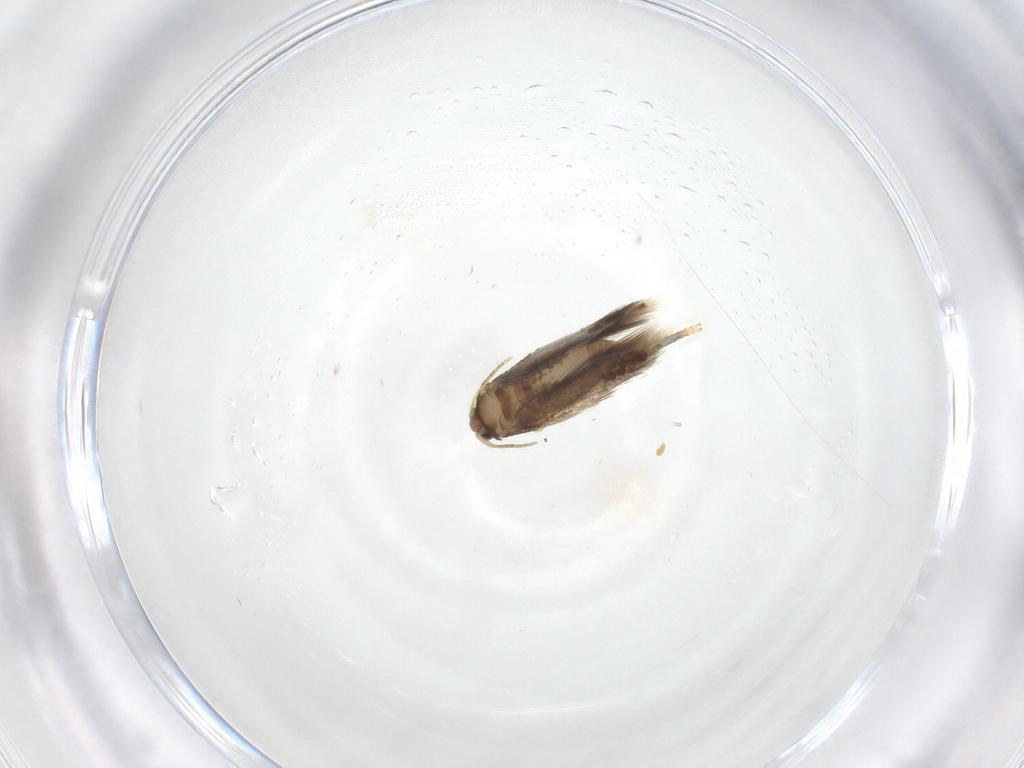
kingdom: Animalia
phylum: Arthropoda
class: Insecta
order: Lepidoptera
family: Nepticulidae
